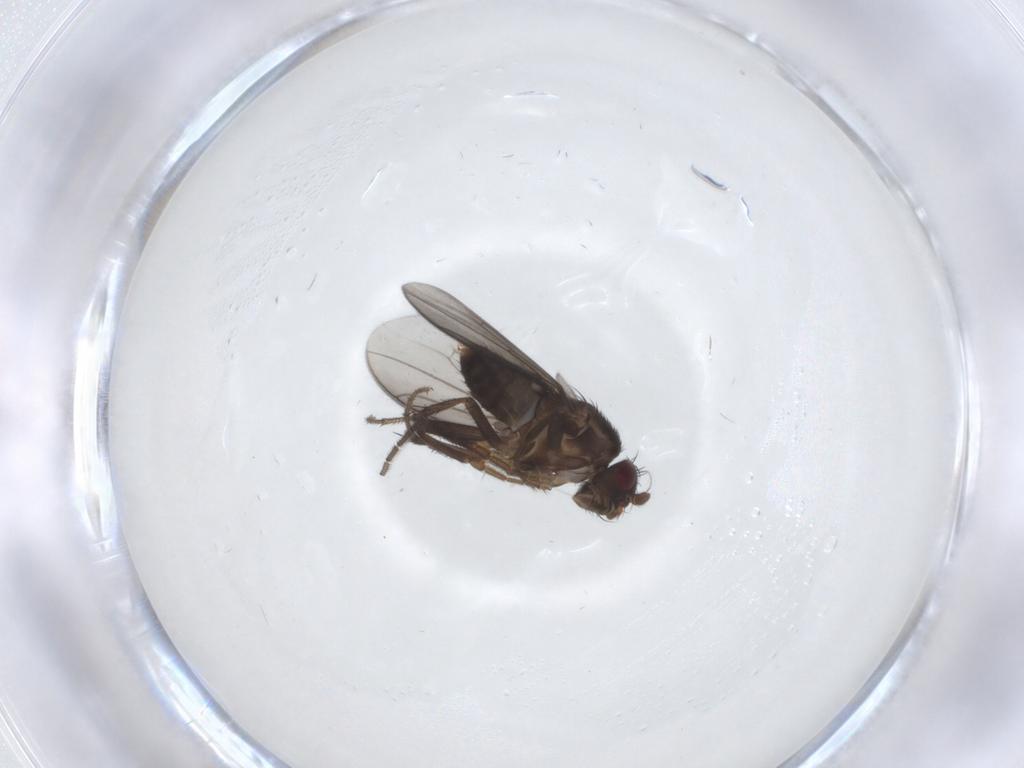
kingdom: Animalia
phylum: Arthropoda
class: Insecta
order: Diptera
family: Ceratopogonidae
